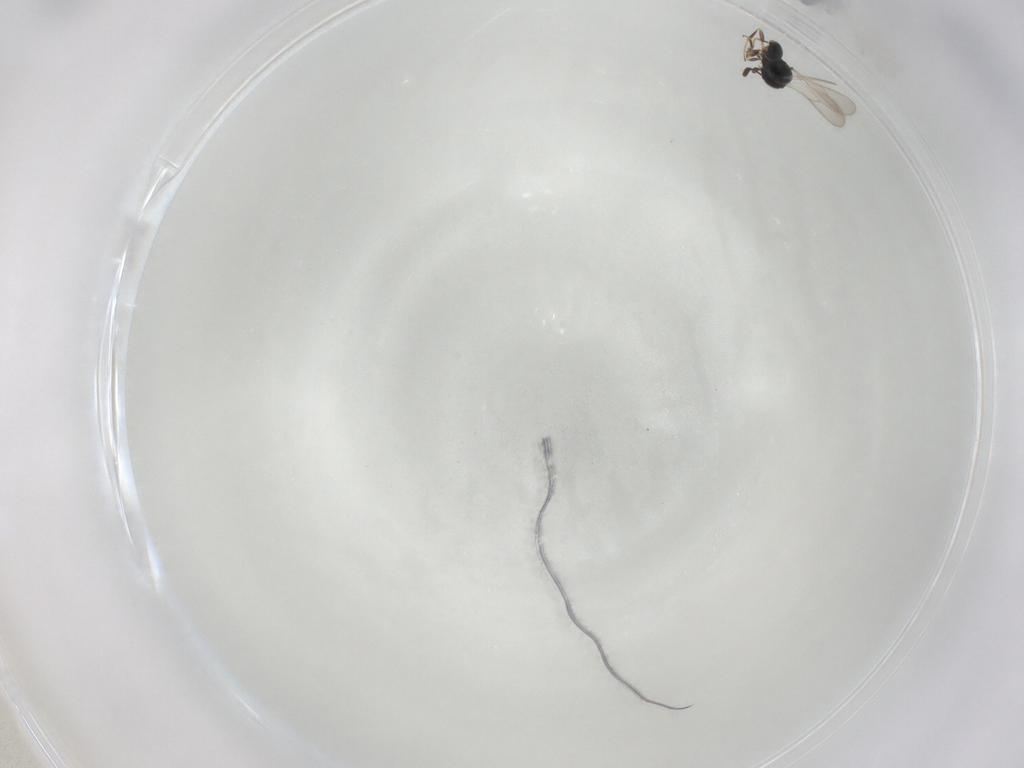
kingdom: Animalia
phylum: Arthropoda
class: Insecta
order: Hymenoptera
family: Scelionidae
